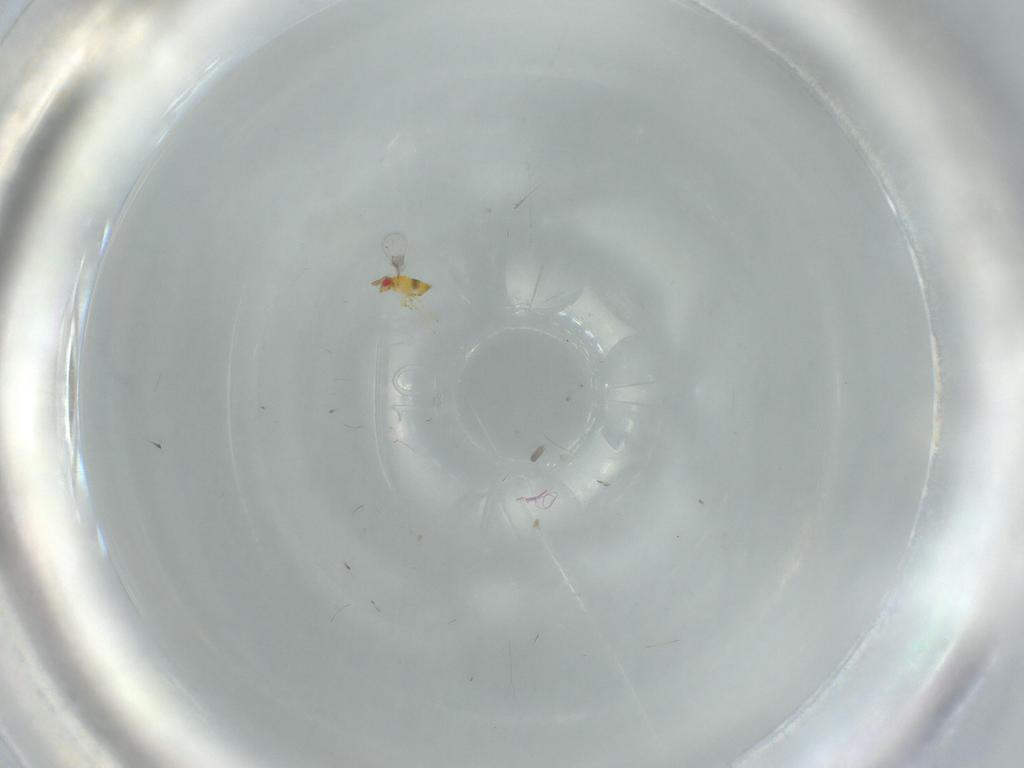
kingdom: Animalia
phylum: Arthropoda
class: Insecta
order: Hymenoptera
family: Trichogrammatidae
